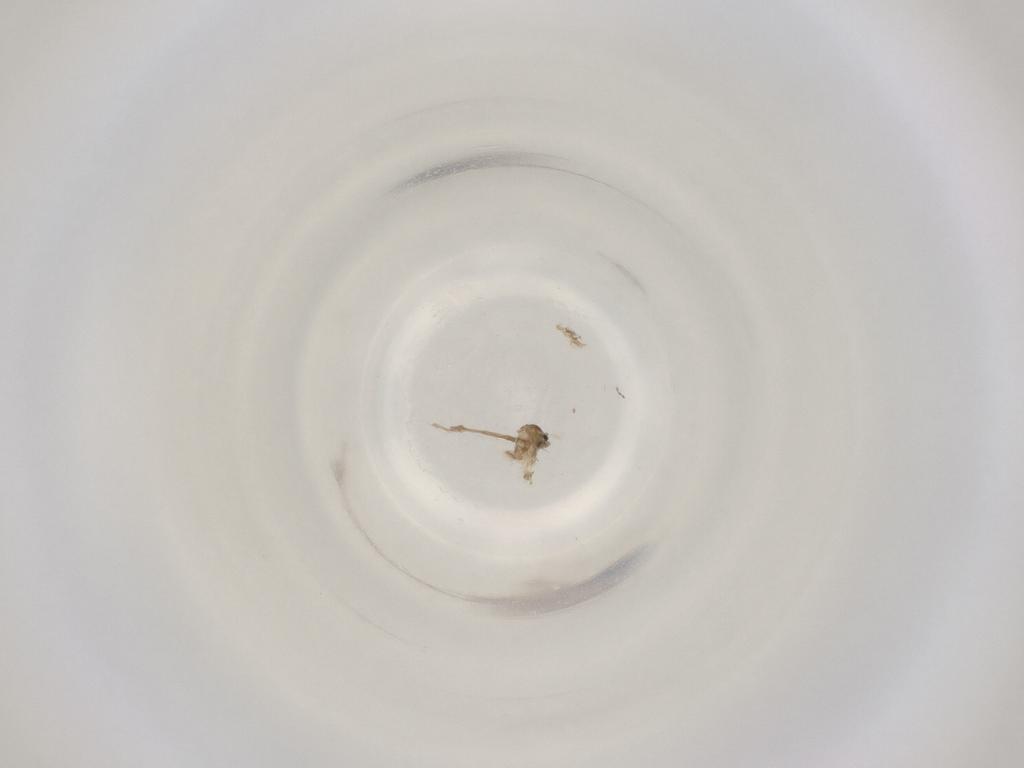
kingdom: Animalia
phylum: Arthropoda
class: Insecta
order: Diptera
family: Cecidomyiidae
